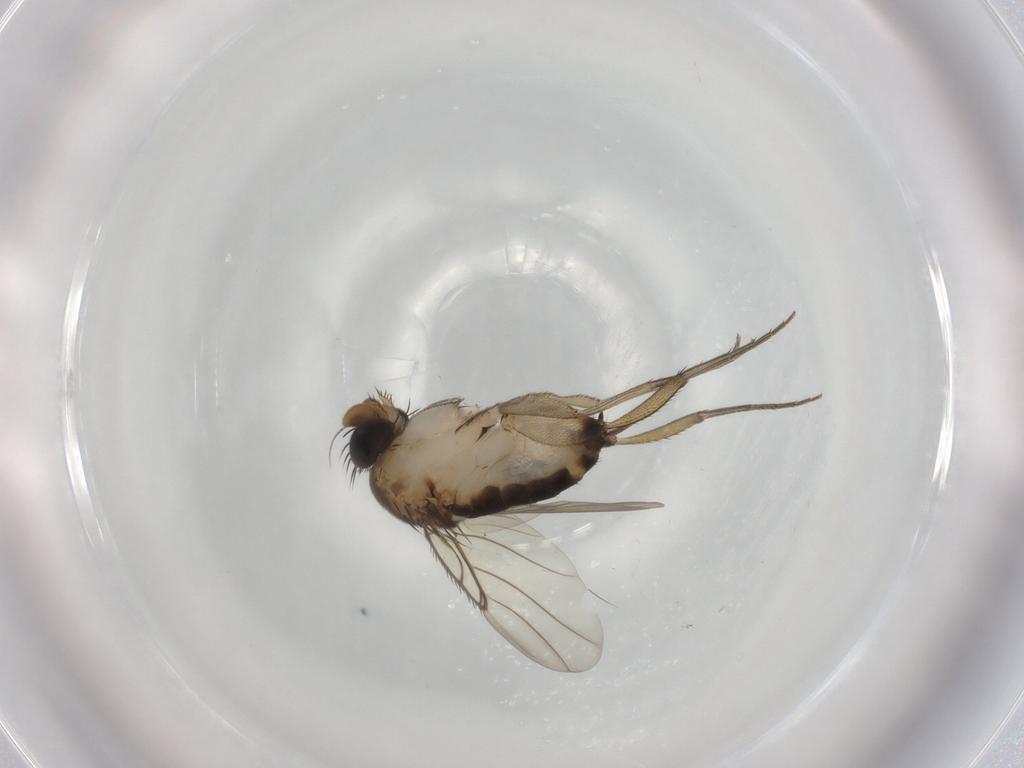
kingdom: Animalia
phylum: Arthropoda
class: Insecta
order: Diptera
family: Phoridae
